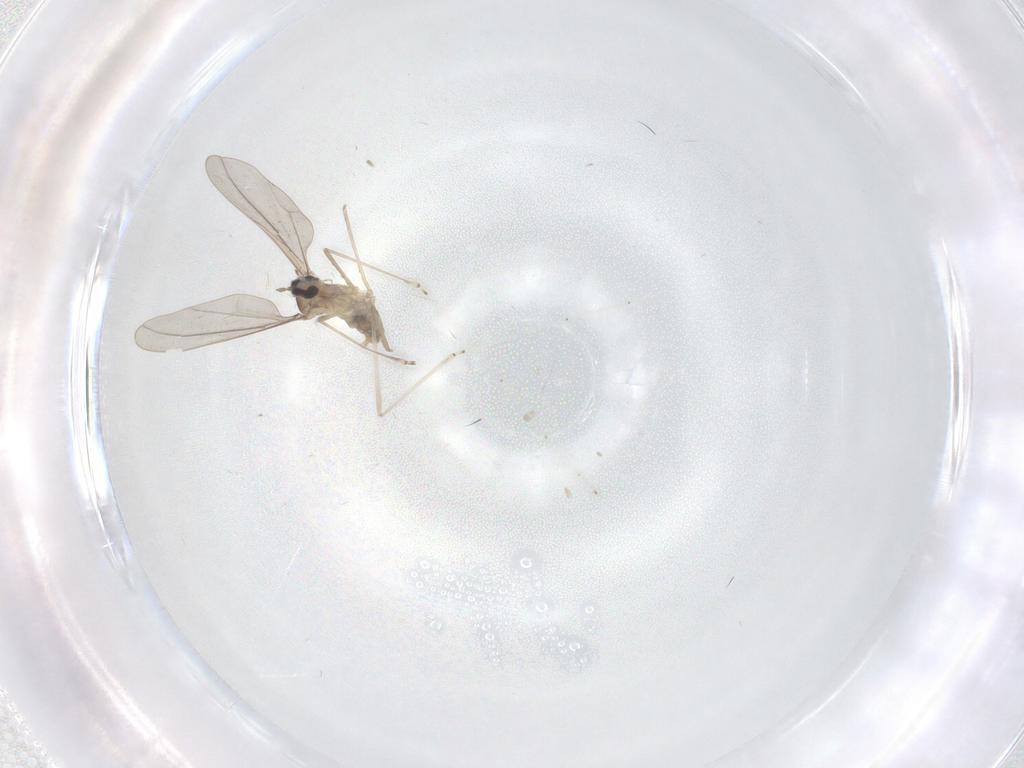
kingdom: Animalia
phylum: Arthropoda
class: Insecta
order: Diptera
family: Cecidomyiidae
